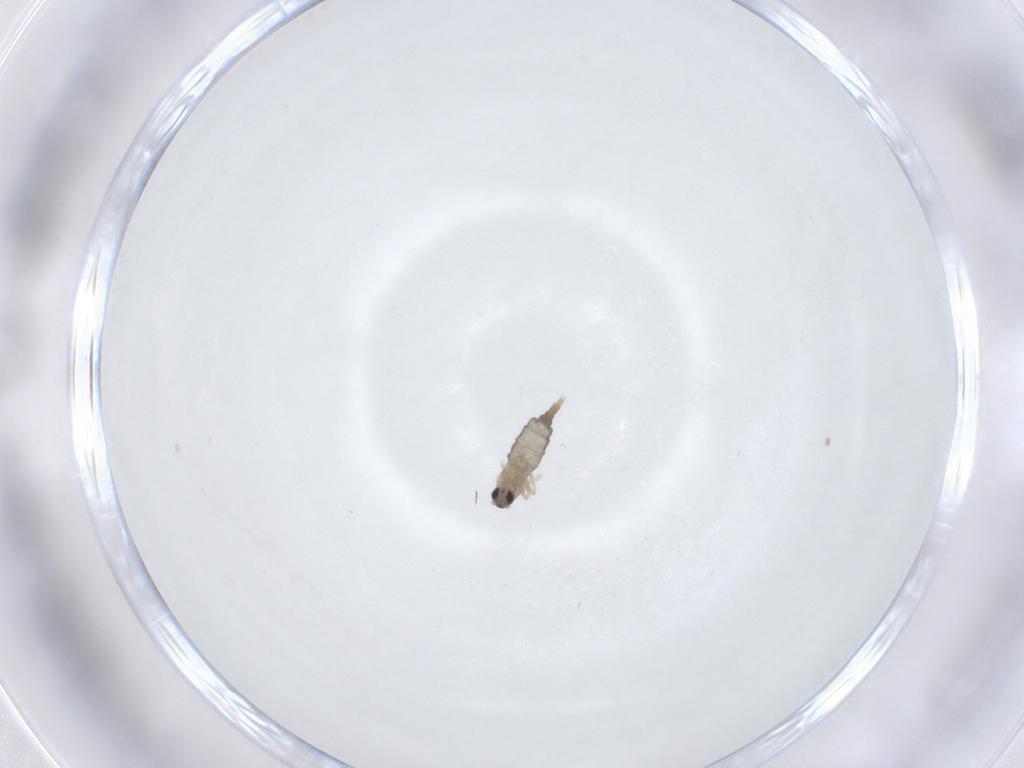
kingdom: Animalia
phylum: Arthropoda
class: Insecta
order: Diptera
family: Cecidomyiidae
